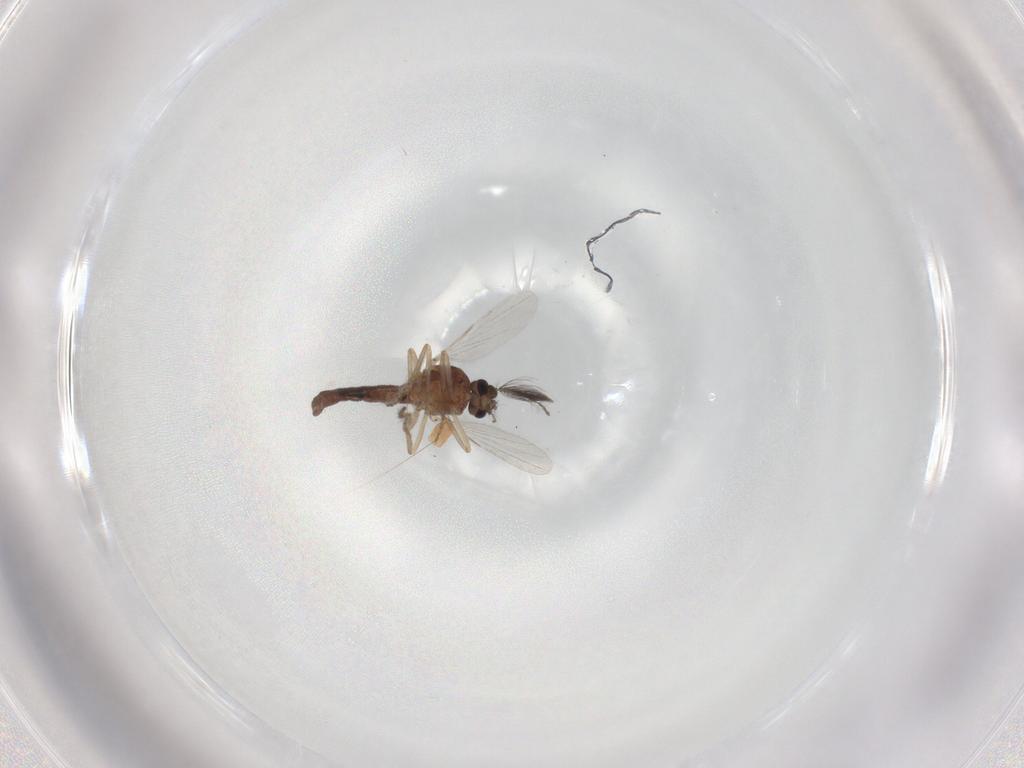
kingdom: Animalia
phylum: Arthropoda
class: Insecta
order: Diptera
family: Ceratopogonidae
